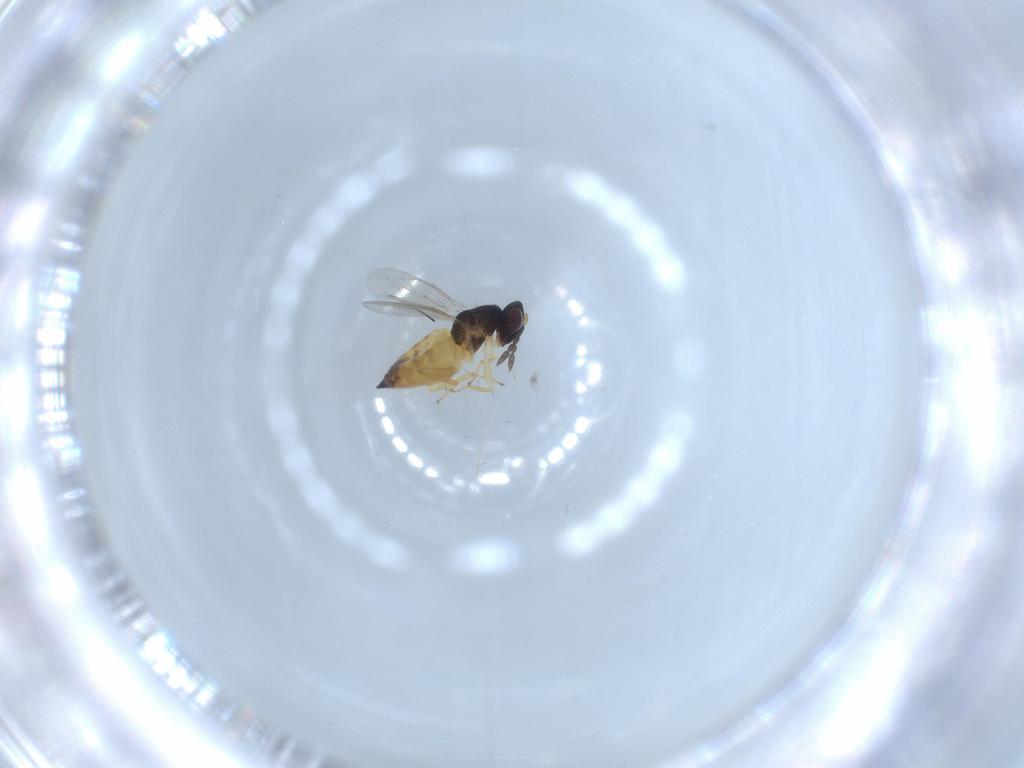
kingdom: Animalia
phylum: Arthropoda
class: Insecta
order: Hymenoptera
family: Eulophidae
